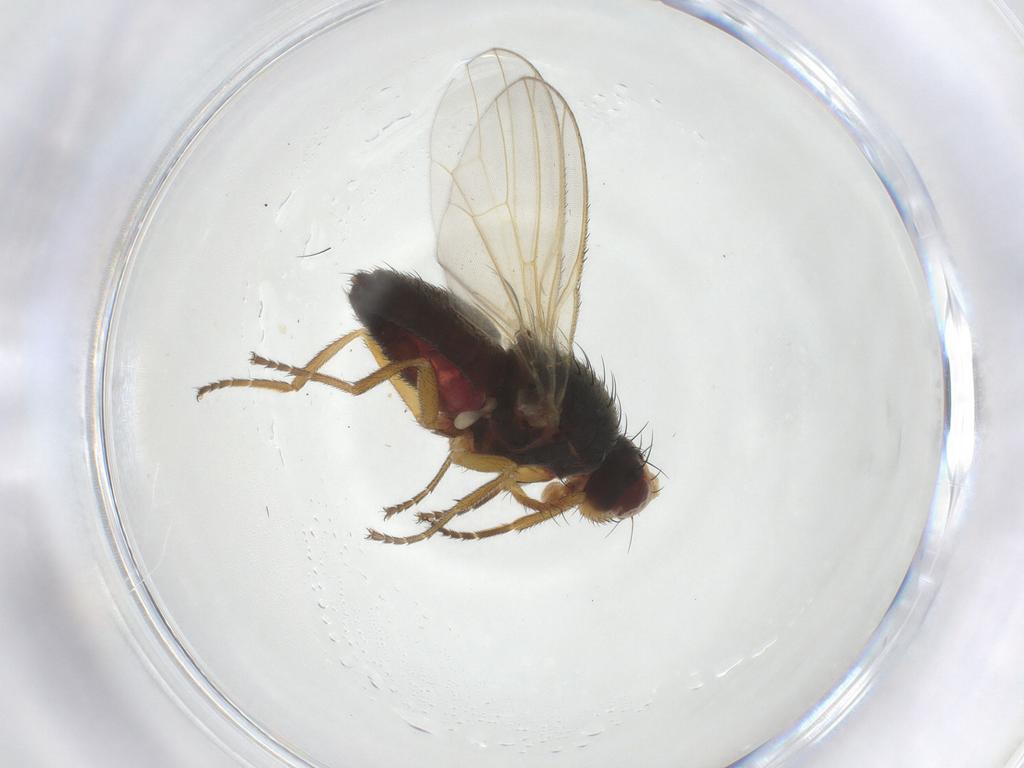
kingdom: Animalia
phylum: Arthropoda
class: Insecta
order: Diptera
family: Heleomyzidae
